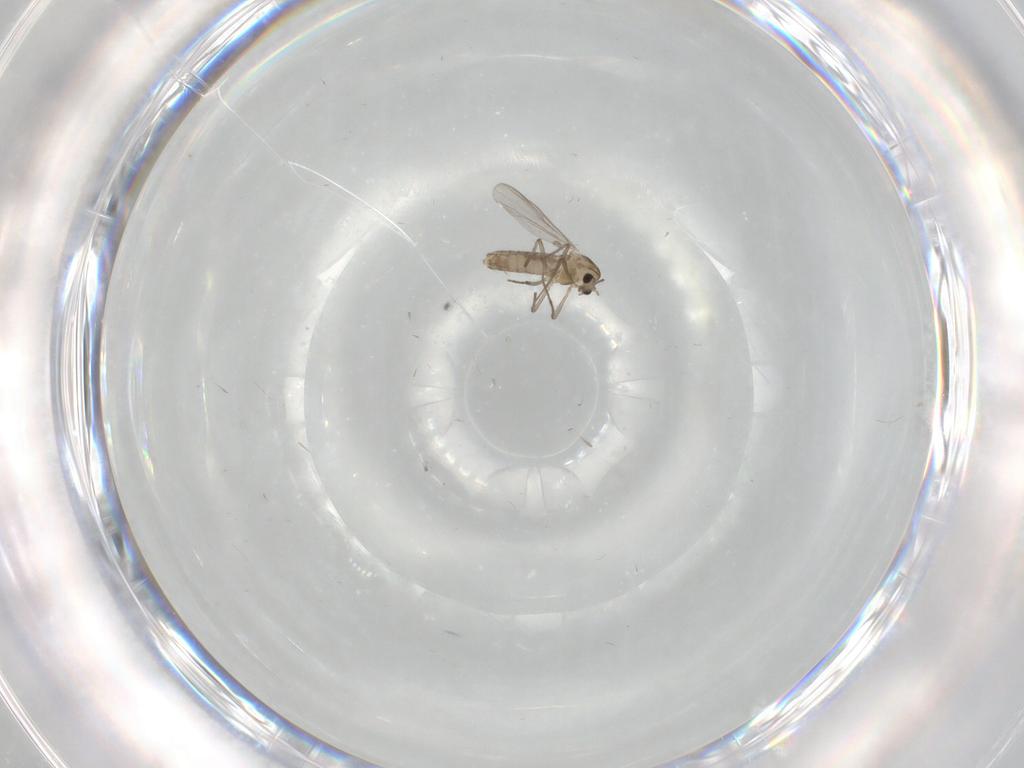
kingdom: Animalia
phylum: Arthropoda
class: Insecta
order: Diptera
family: Chironomidae
